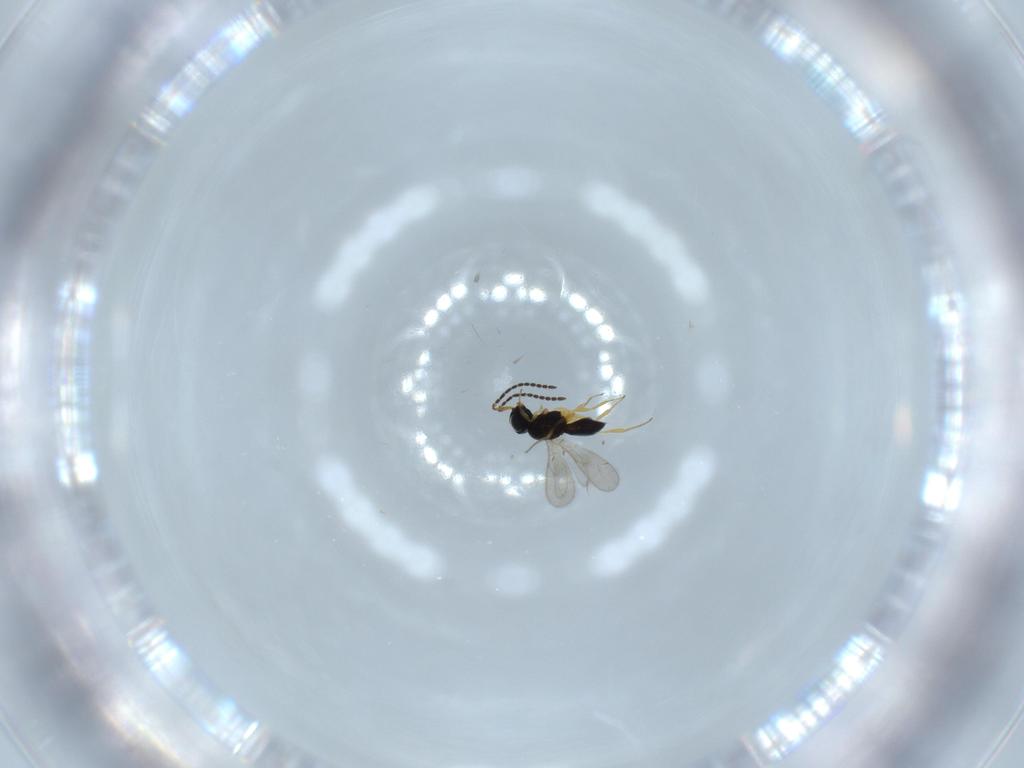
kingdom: Animalia
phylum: Arthropoda
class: Insecta
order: Hymenoptera
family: Scelionidae
